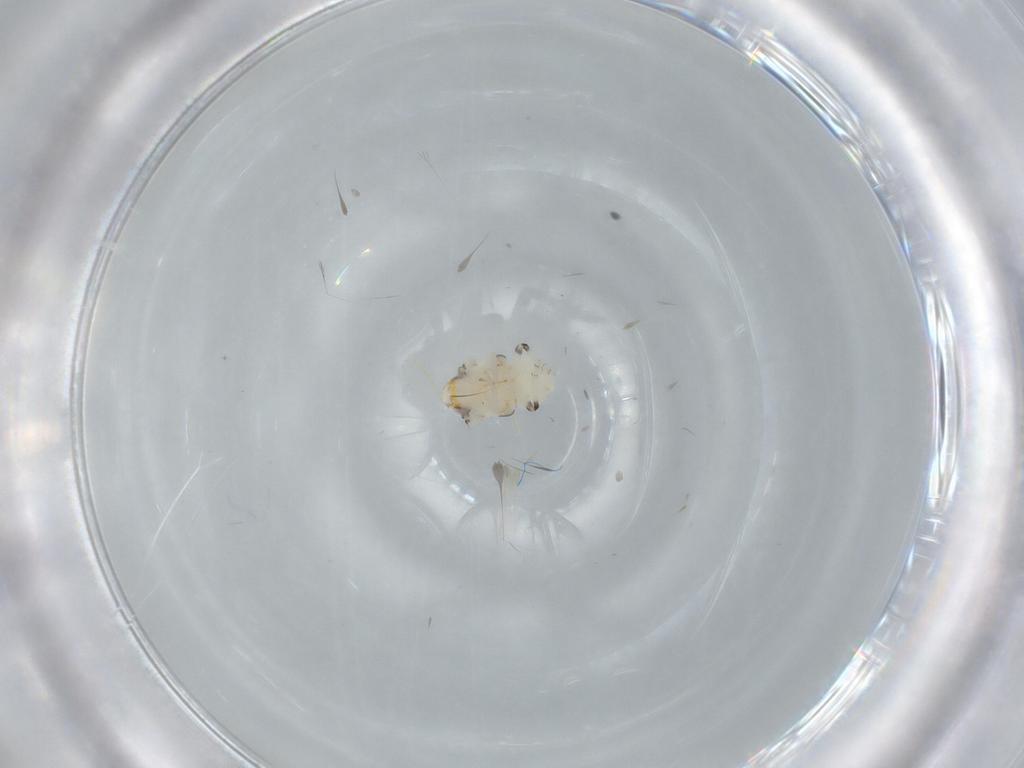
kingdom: Animalia
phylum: Arthropoda
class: Insecta
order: Hemiptera
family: Nogodinidae
